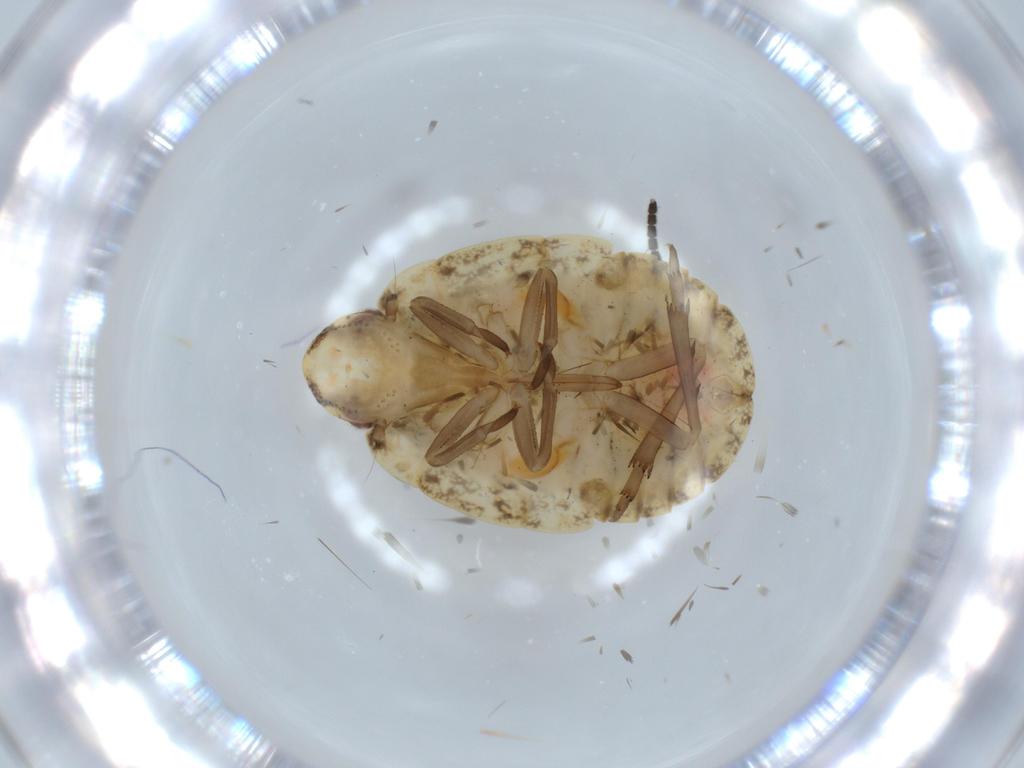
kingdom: Animalia
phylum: Arthropoda
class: Insecta
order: Hemiptera
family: Flatidae
